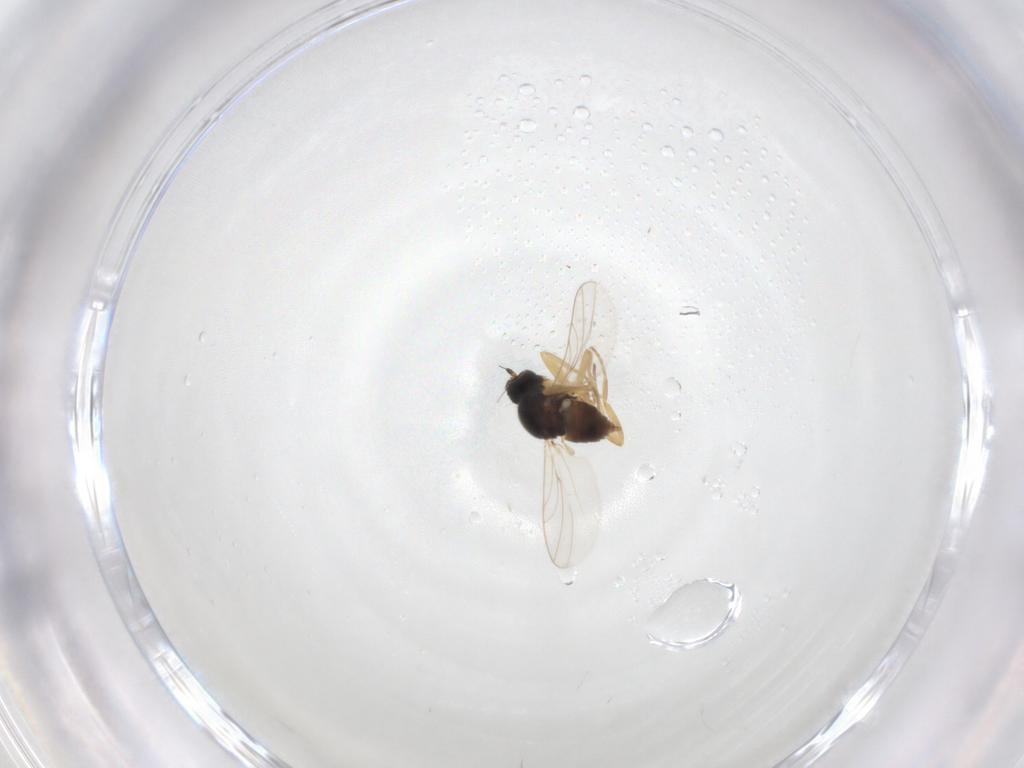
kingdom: Animalia
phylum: Arthropoda
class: Insecta
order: Diptera
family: Hybotidae
